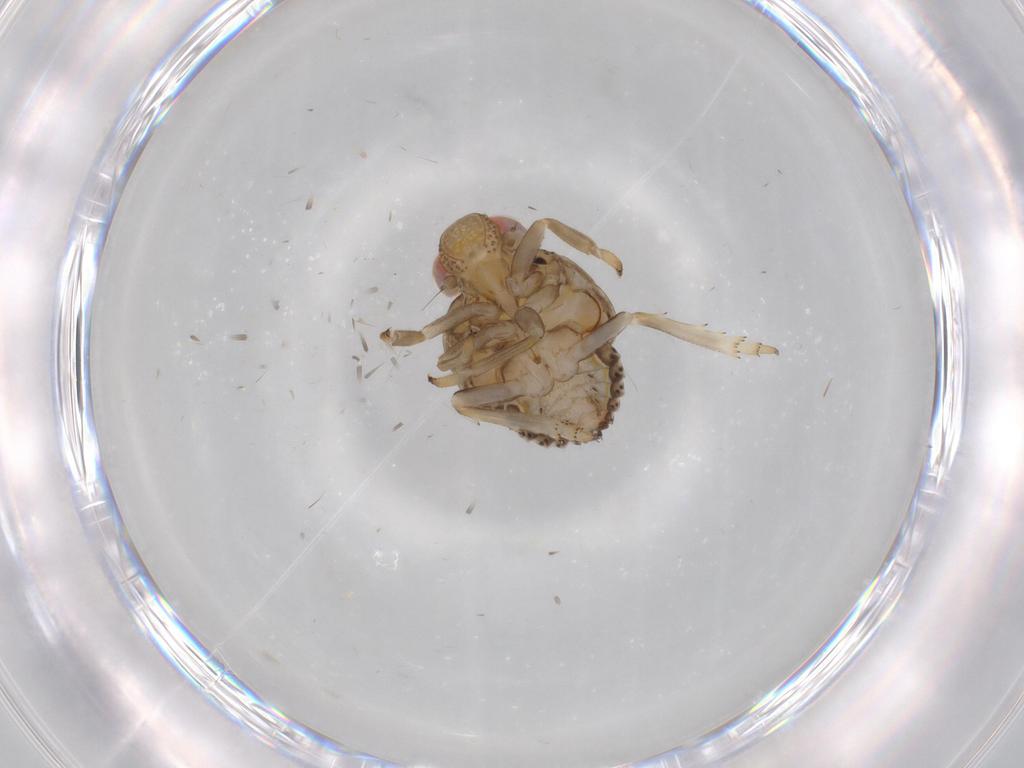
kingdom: Animalia
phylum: Arthropoda
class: Insecta
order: Hemiptera
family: Issidae
